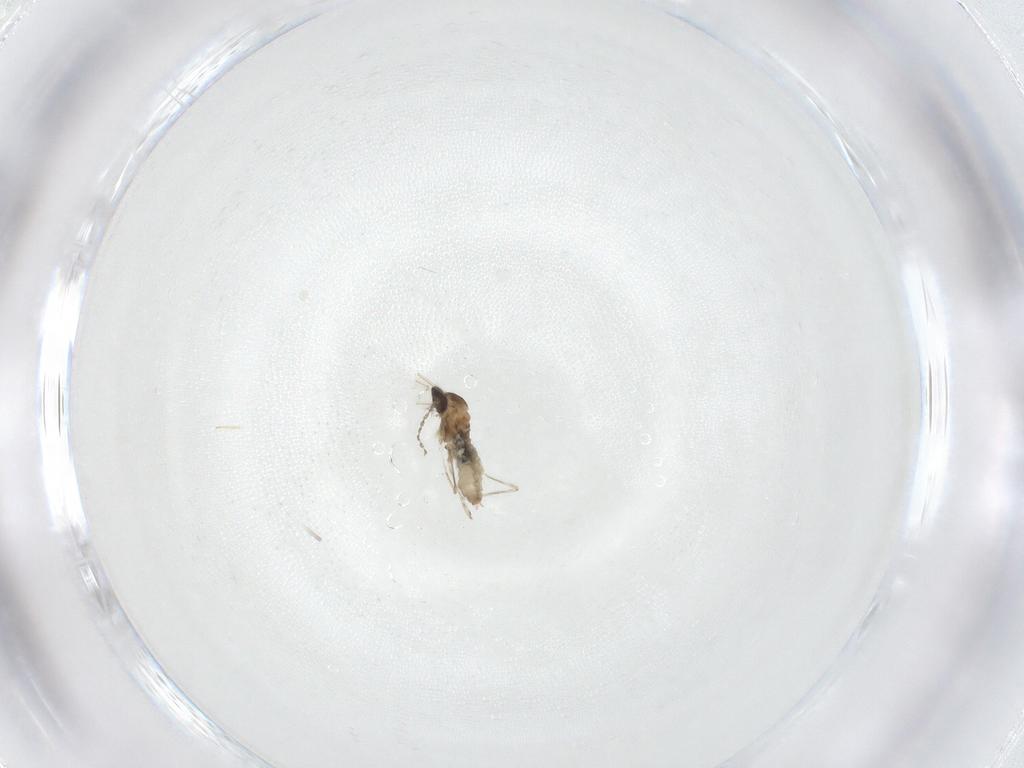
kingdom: Animalia
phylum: Arthropoda
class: Insecta
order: Diptera
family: Cecidomyiidae
